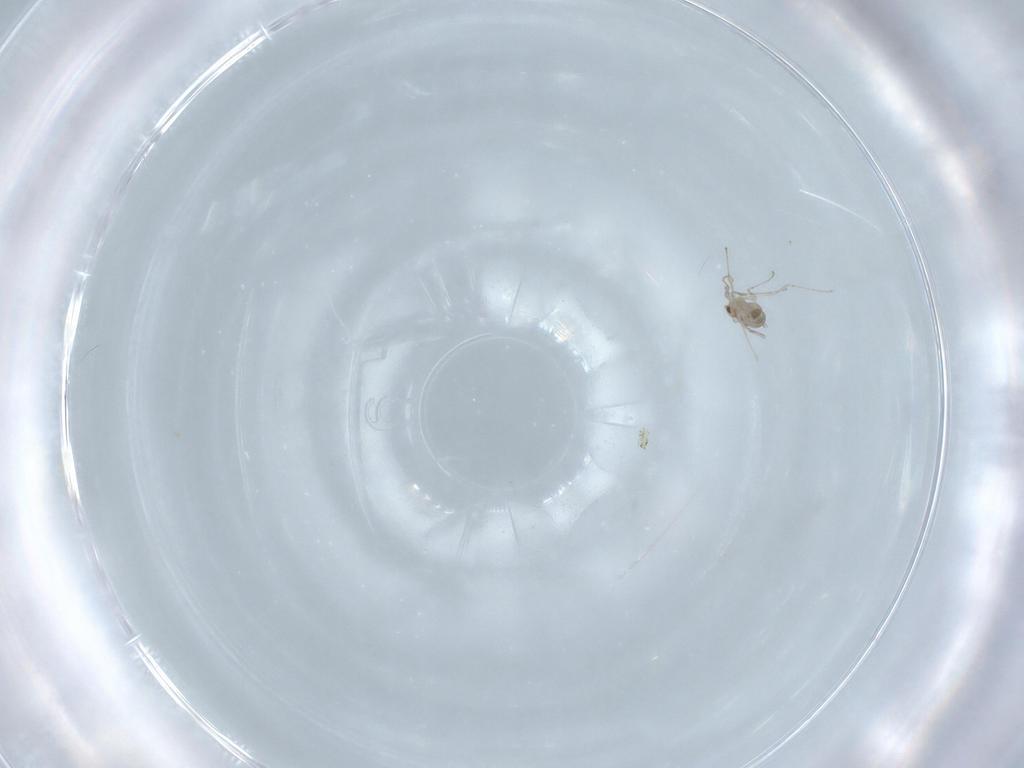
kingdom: Animalia
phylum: Arthropoda
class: Insecta
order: Diptera
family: Cecidomyiidae
